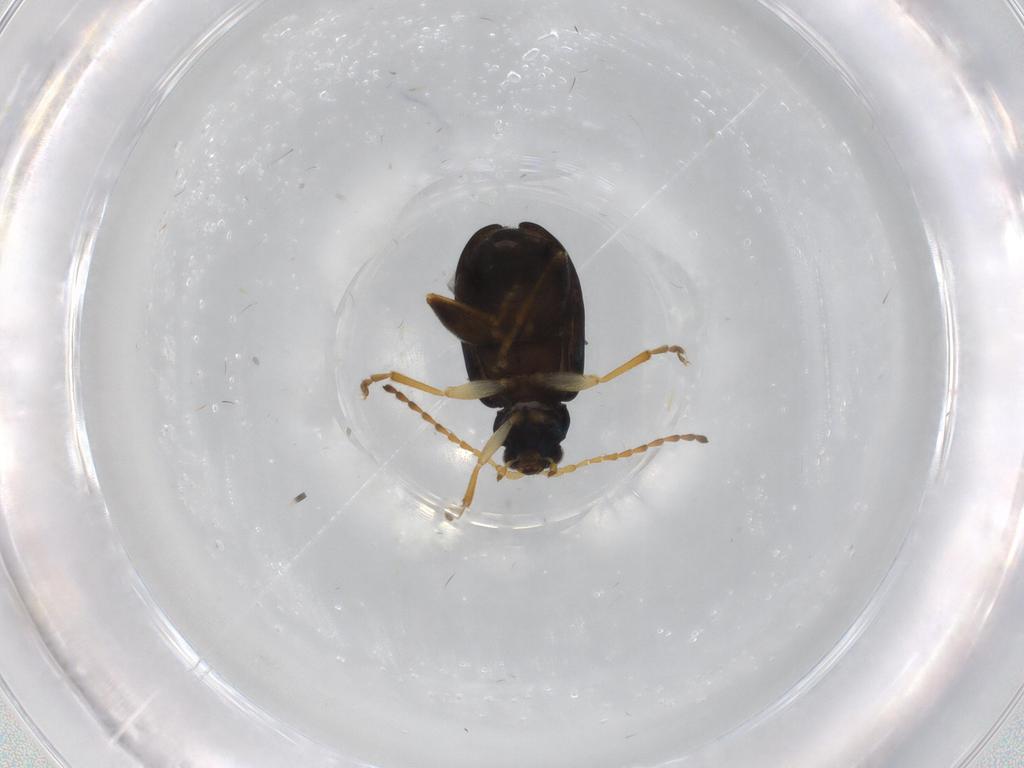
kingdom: Animalia
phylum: Arthropoda
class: Insecta
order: Coleoptera
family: Chrysomelidae
